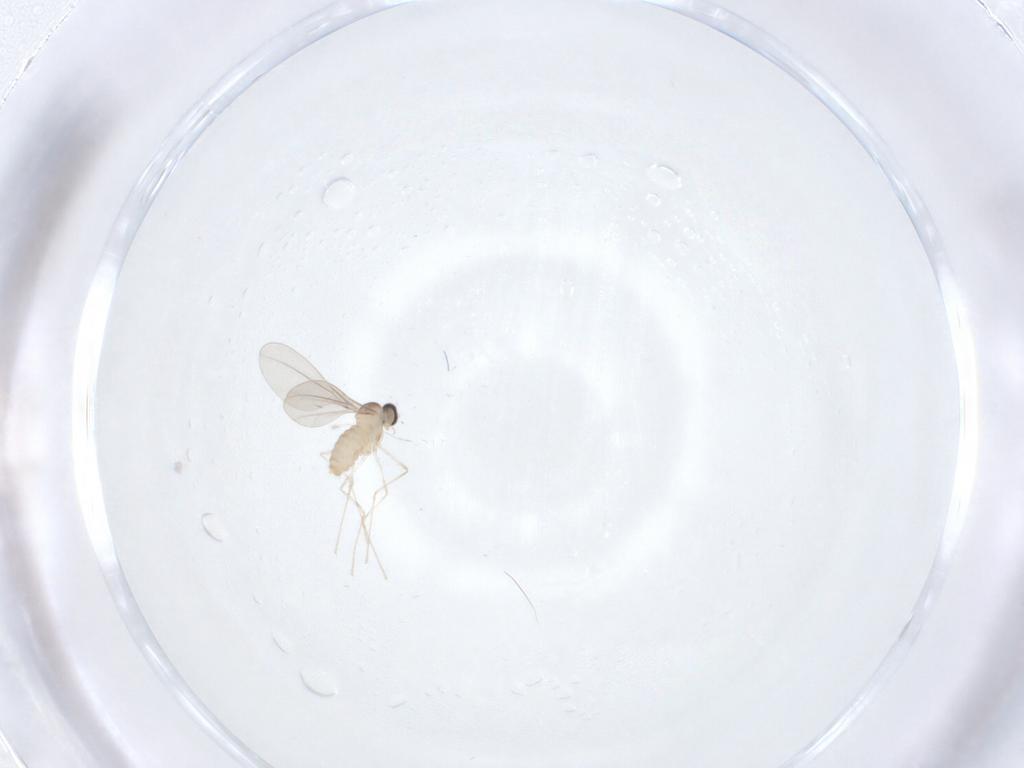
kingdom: Animalia
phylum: Arthropoda
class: Insecta
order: Diptera
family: Cecidomyiidae
